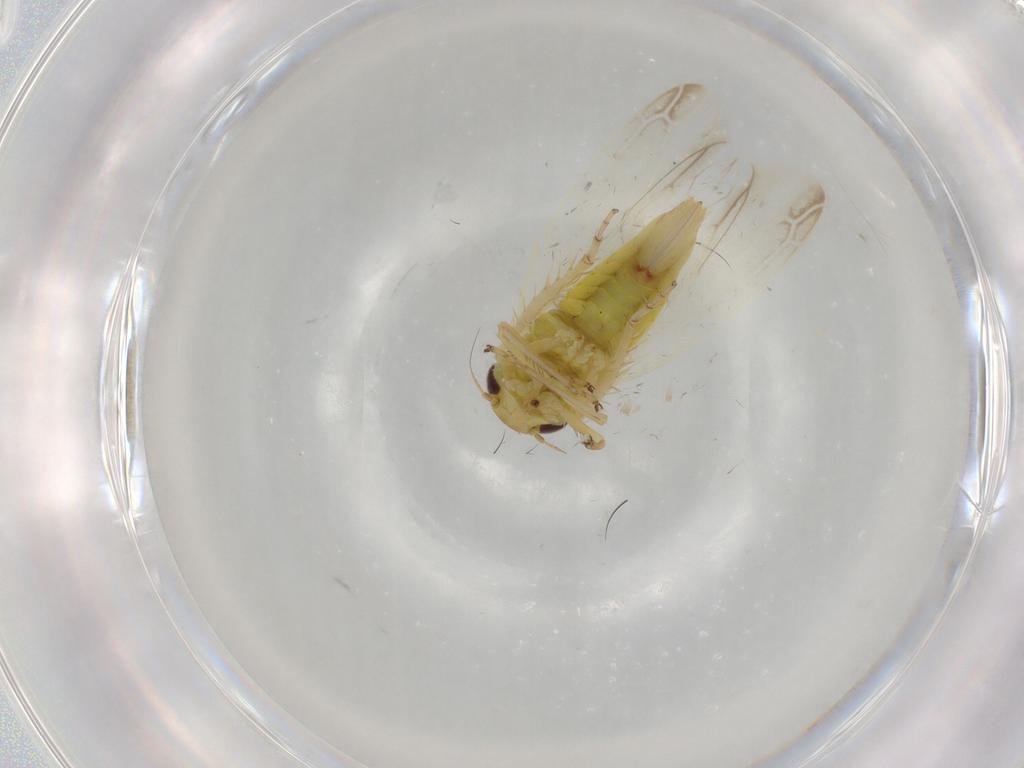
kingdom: Animalia
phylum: Arthropoda
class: Insecta
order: Hemiptera
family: Cicadellidae
